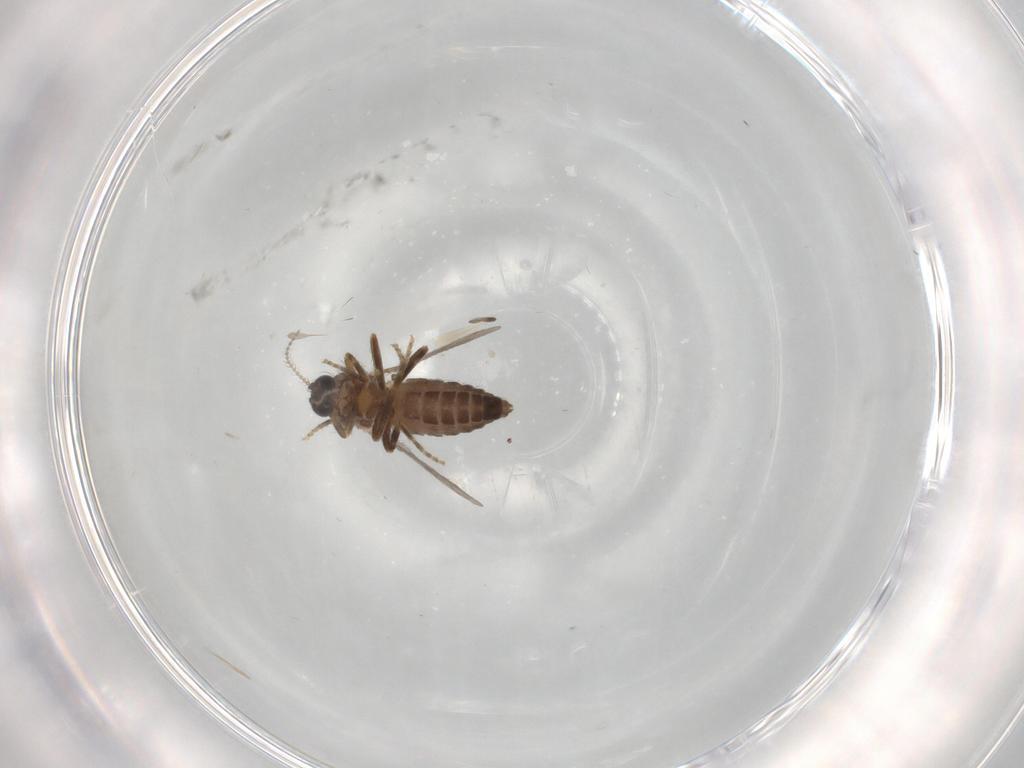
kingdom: Animalia
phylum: Arthropoda
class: Insecta
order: Diptera
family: Ceratopogonidae
